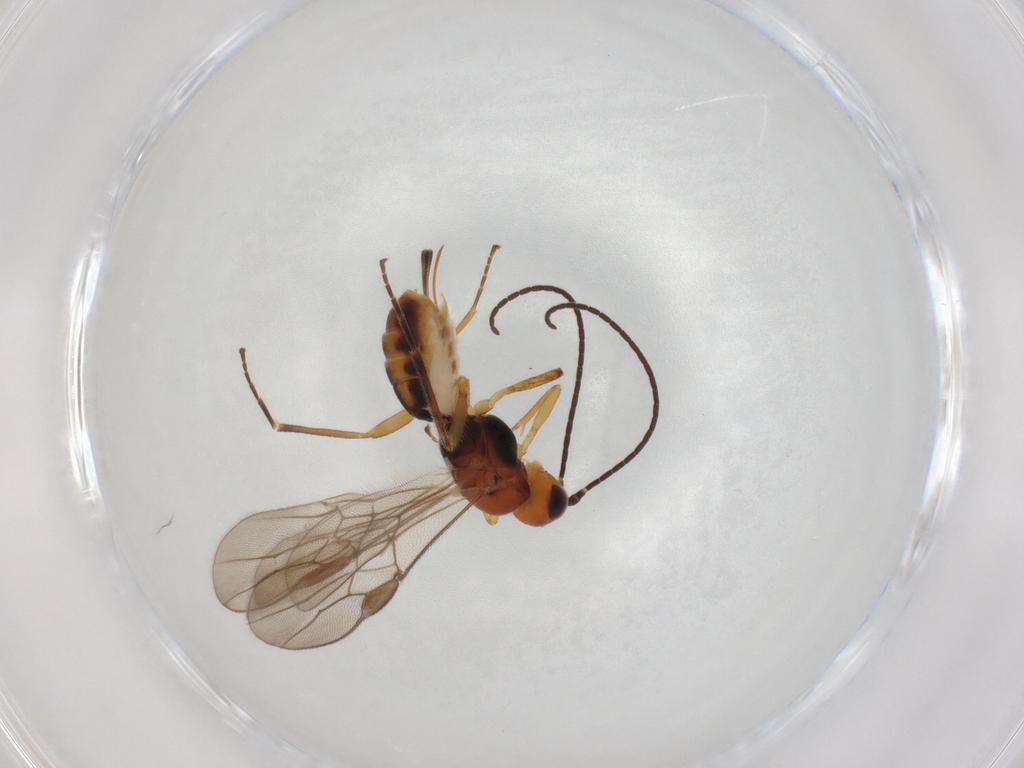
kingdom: Animalia
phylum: Arthropoda
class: Insecta
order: Hymenoptera
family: Braconidae
